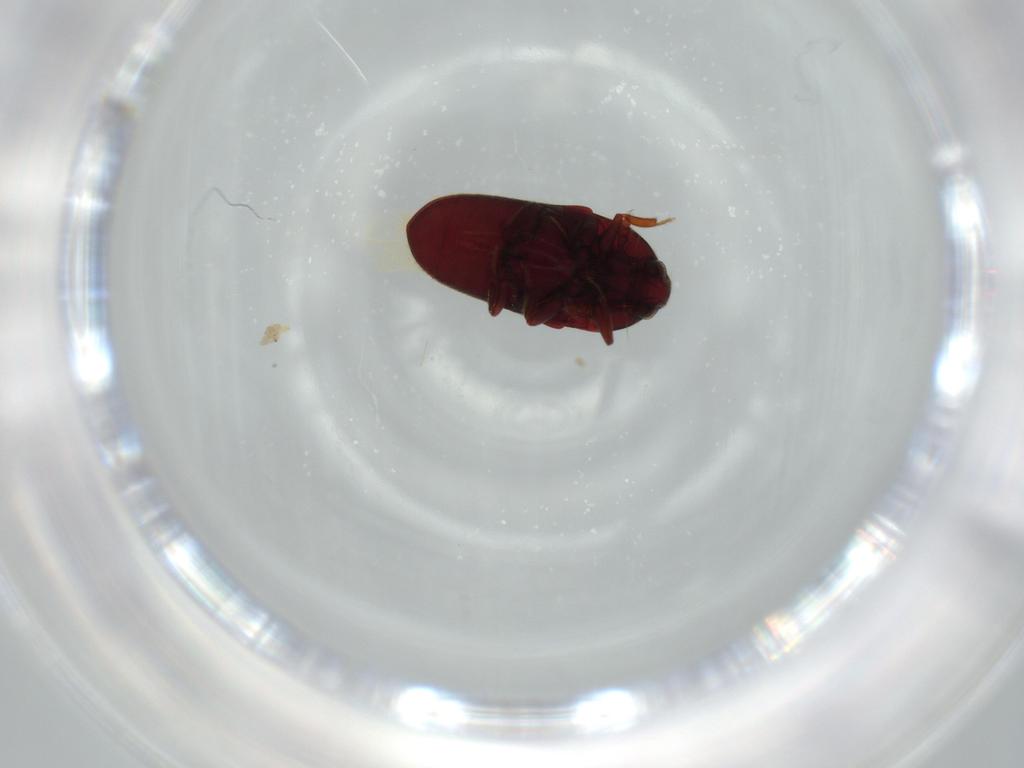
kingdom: Animalia
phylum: Arthropoda
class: Insecta
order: Coleoptera
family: Throscidae
